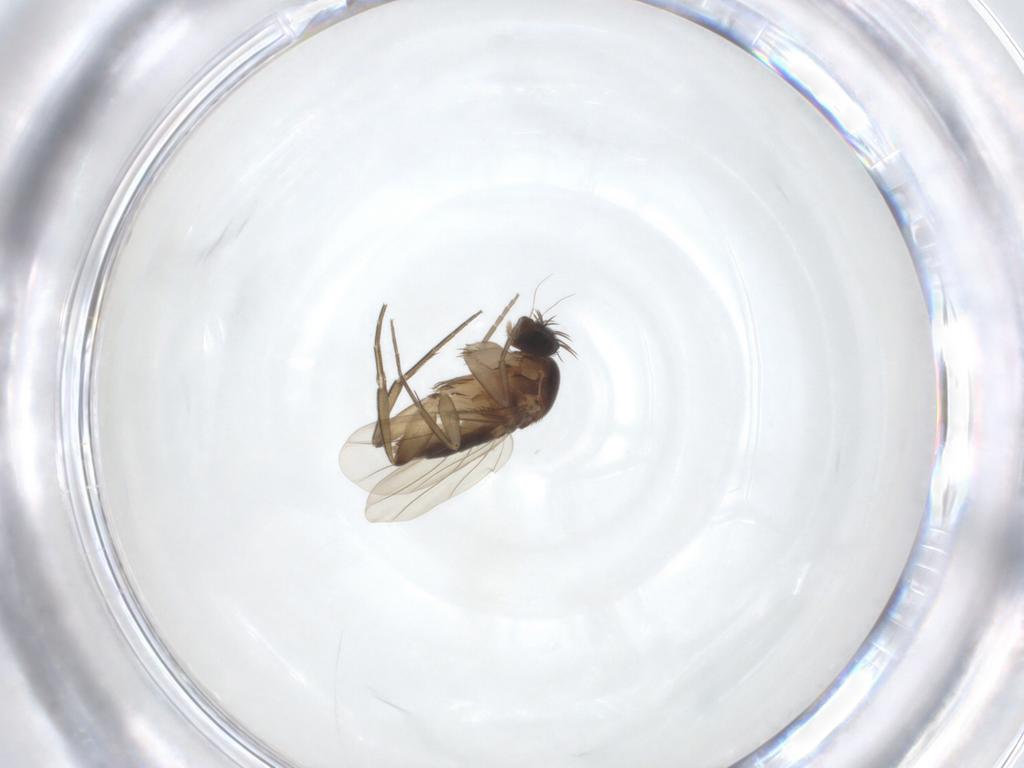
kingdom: Animalia
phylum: Arthropoda
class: Insecta
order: Diptera
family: Phoridae
